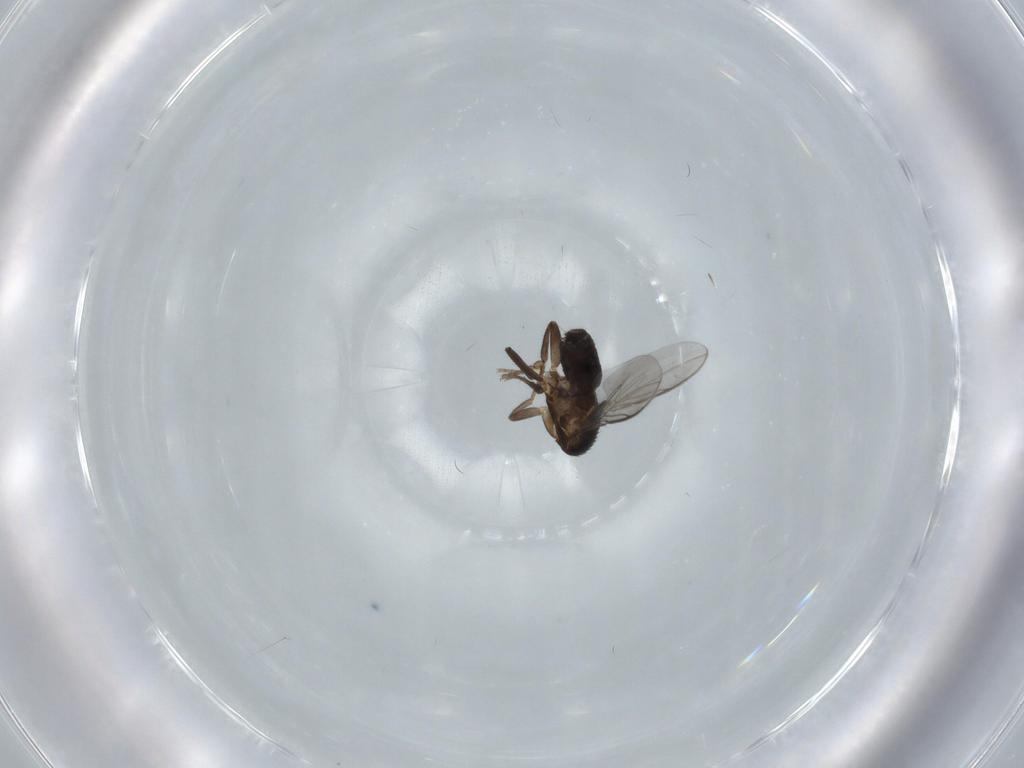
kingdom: Animalia
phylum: Arthropoda
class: Insecta
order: Diptera
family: Sphaeroceridae
